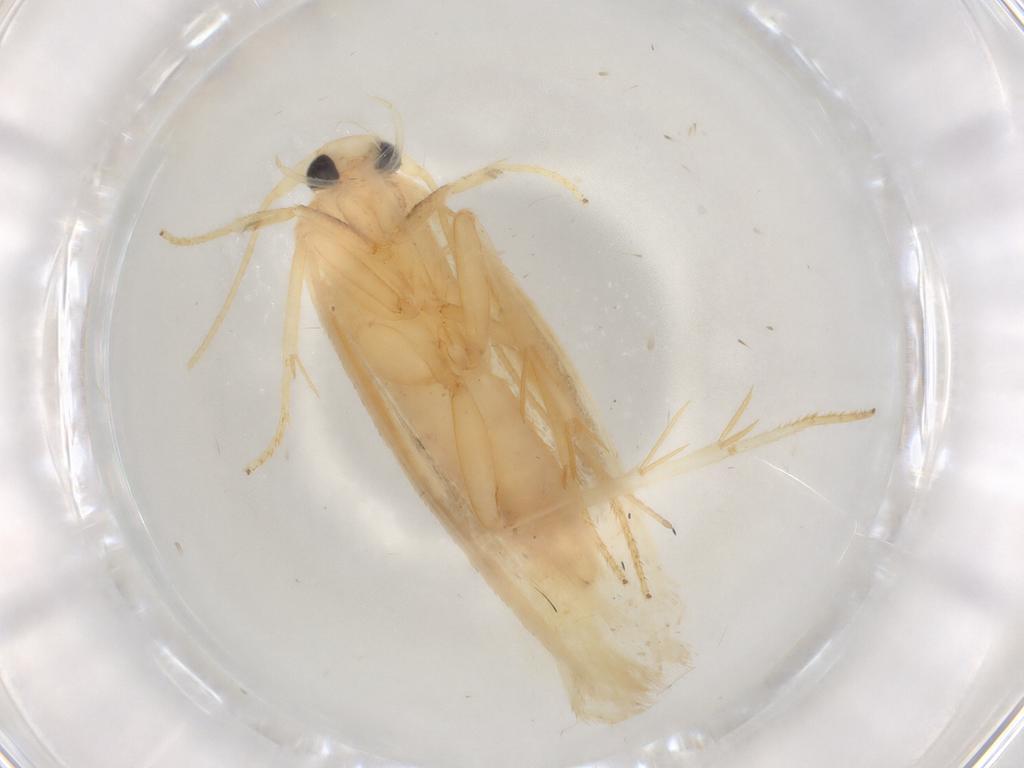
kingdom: Animalia
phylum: Arthropoda
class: Insecta
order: Lepidoptera
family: Geometridae
